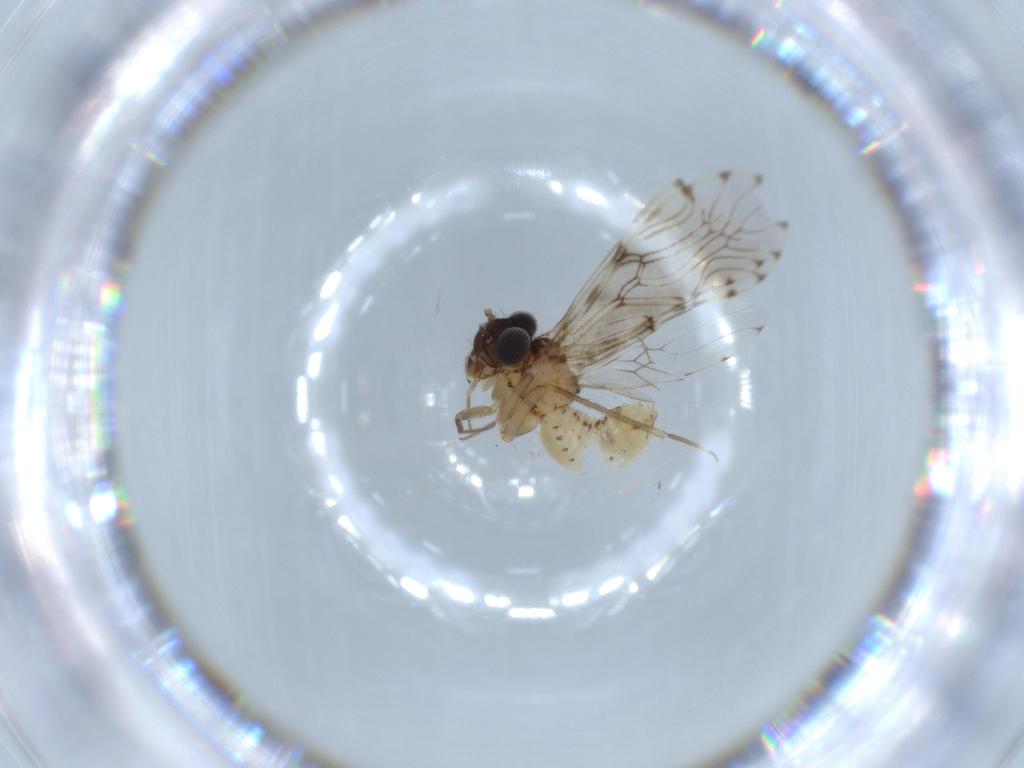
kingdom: Animalia
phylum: Arthropoda
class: Insecta
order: Psocodea
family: Epipsocidae
